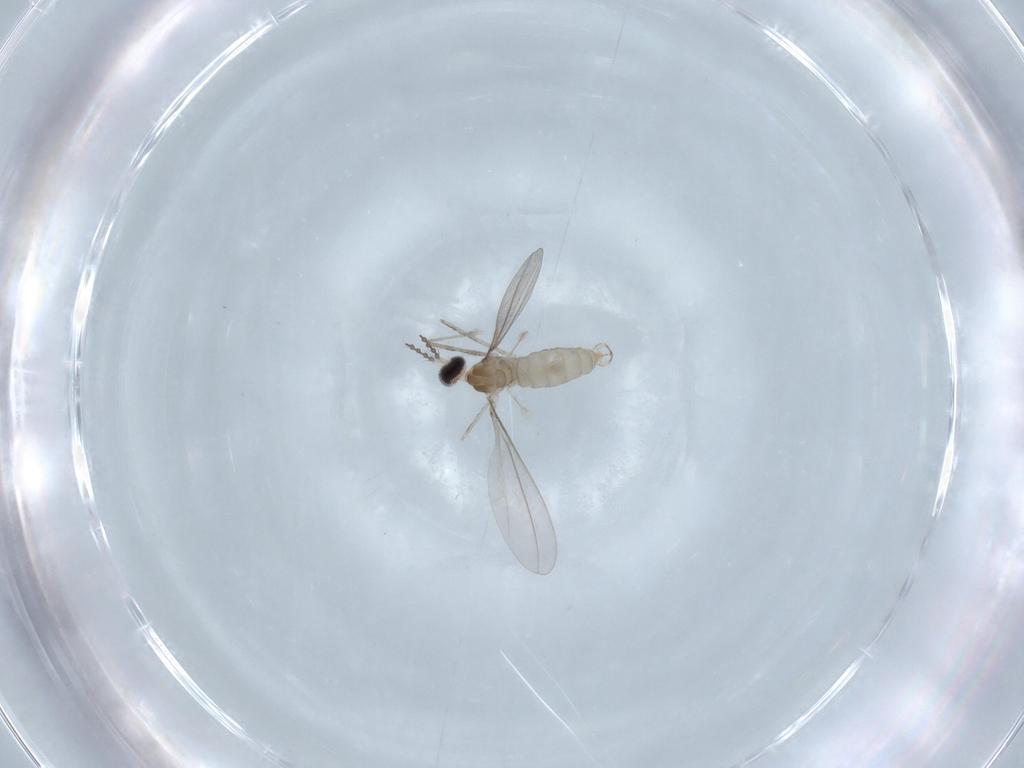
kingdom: Animalia
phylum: Arthropoda
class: Insecta
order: Diptera
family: Cecidomyiidae
